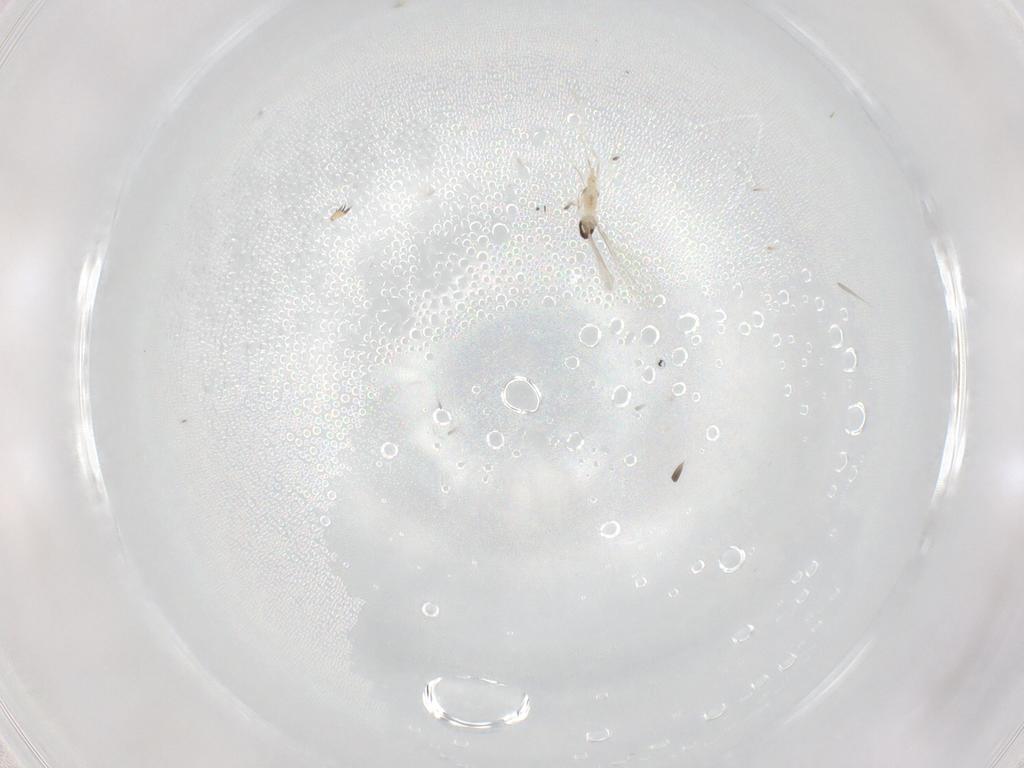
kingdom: Animalia
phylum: Arthropoda
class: Insecta
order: Diptera
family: Cecidomyiidae
